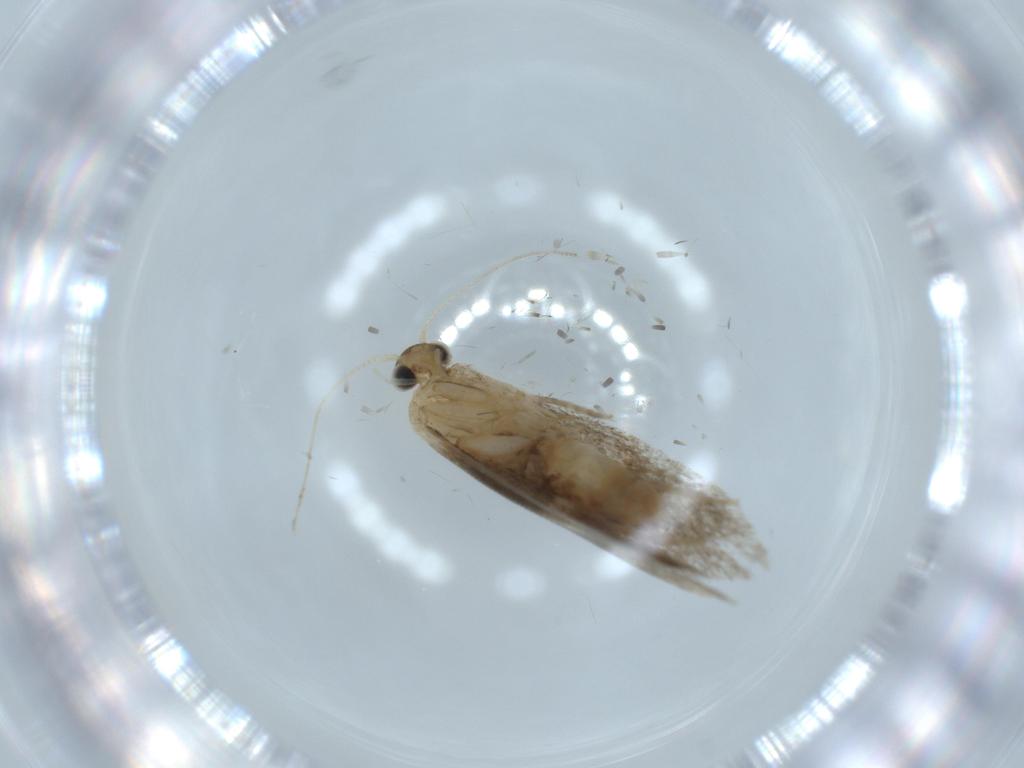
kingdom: Animalia
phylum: Arthropoda
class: Insecta
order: Lepidoptera
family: Tineidae
